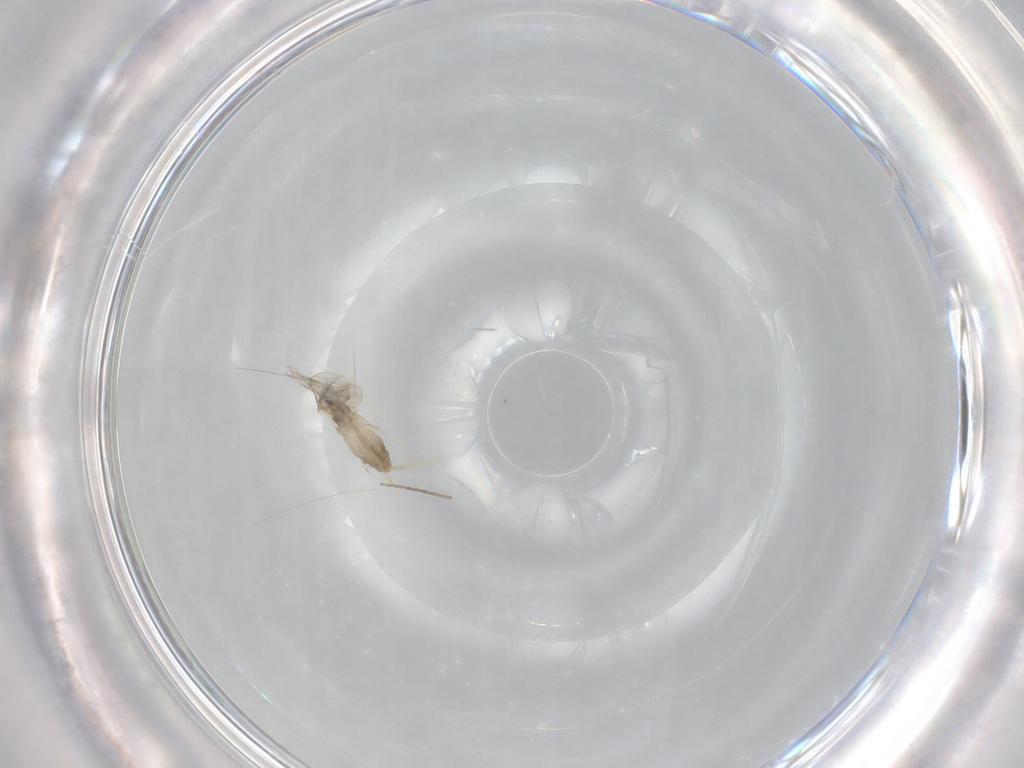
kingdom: Animalia
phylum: Arthropoda
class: Insecta
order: Diptera
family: Cecidomyiidae
